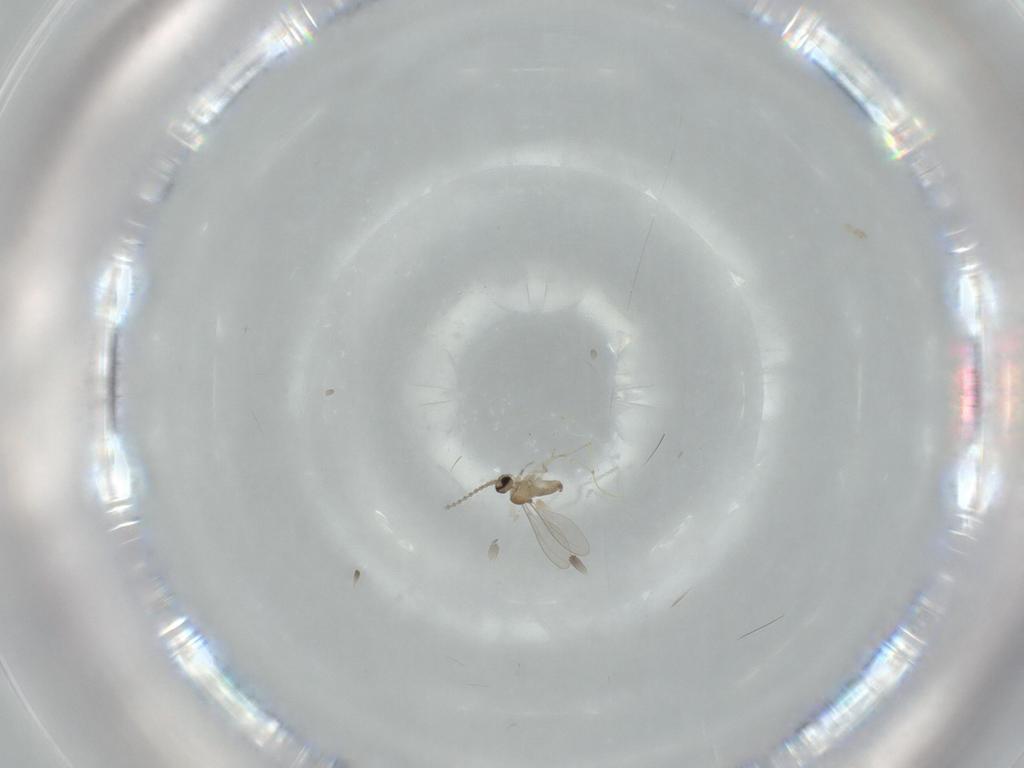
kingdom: Animalia
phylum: Arthropoda
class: Insecta
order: Diptera
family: Cecidomyiidae
